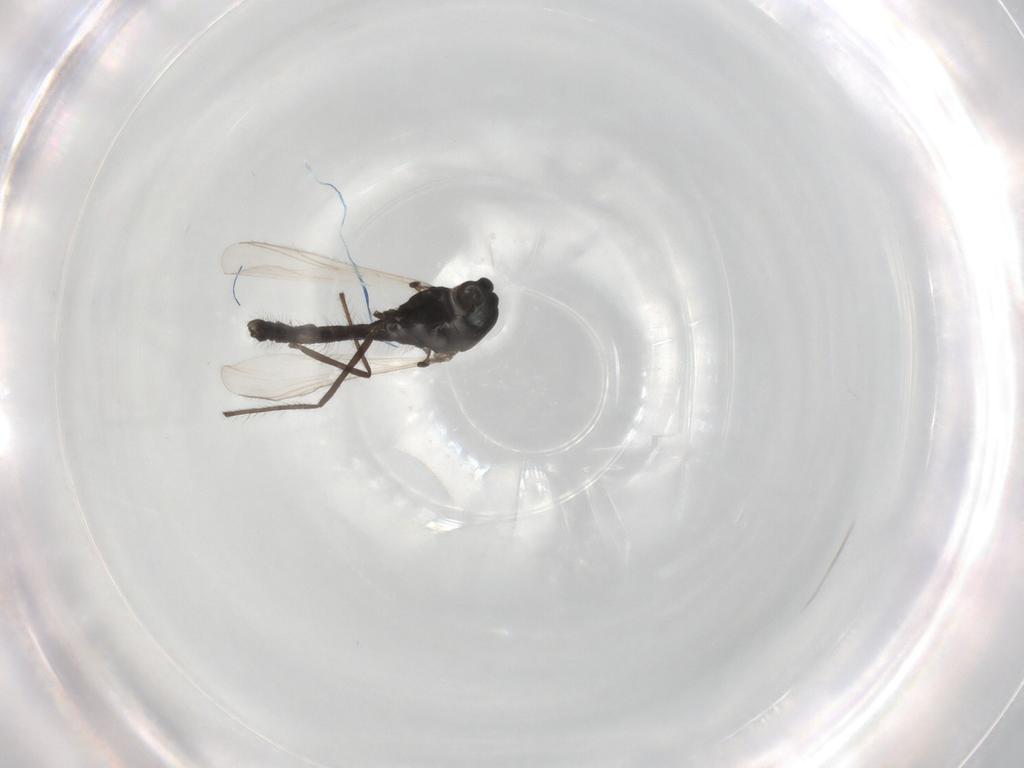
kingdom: Animalia
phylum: Arthropoda
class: Insecta
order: Diptera
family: Chironomidae
